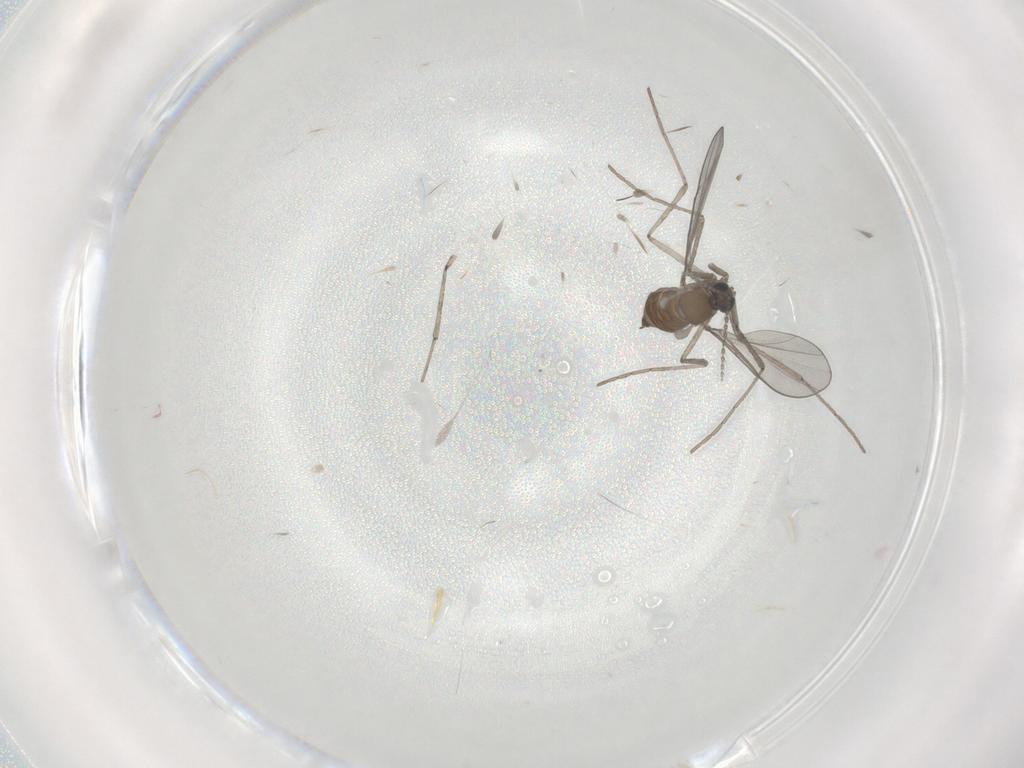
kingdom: Animalia
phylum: Arthropoda
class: Insecta
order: Diptera
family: Cecidomyiidae
